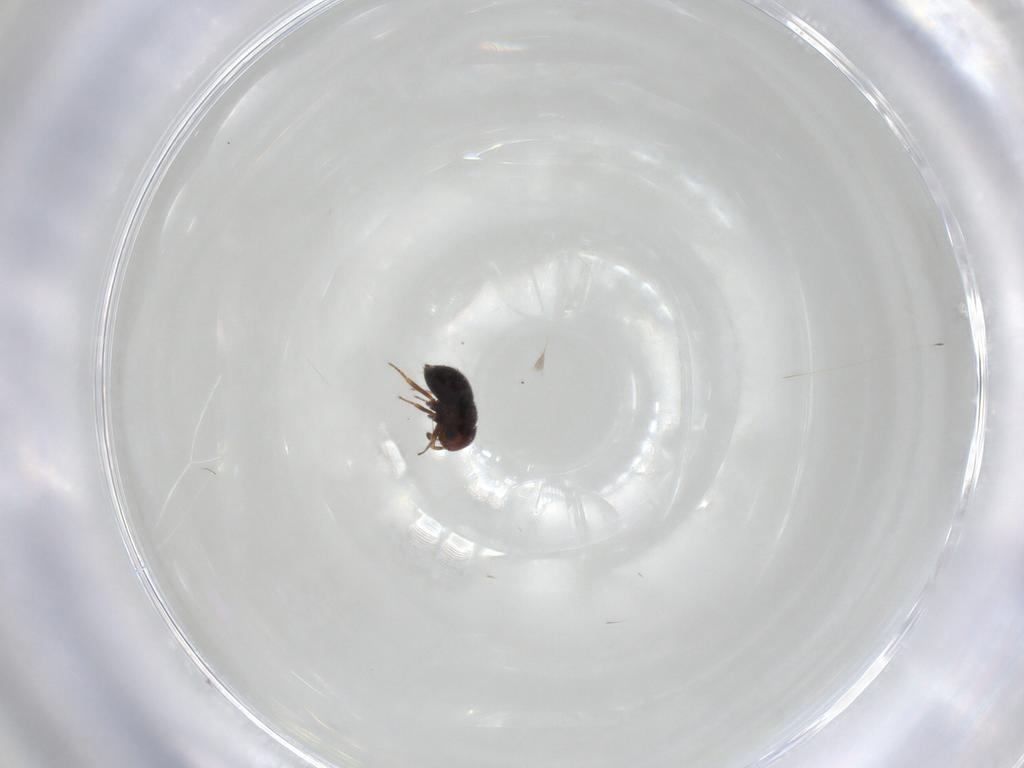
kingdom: Animalia
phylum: Arthropoda
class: Insecta
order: Hymenoptera
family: Scelionidae
